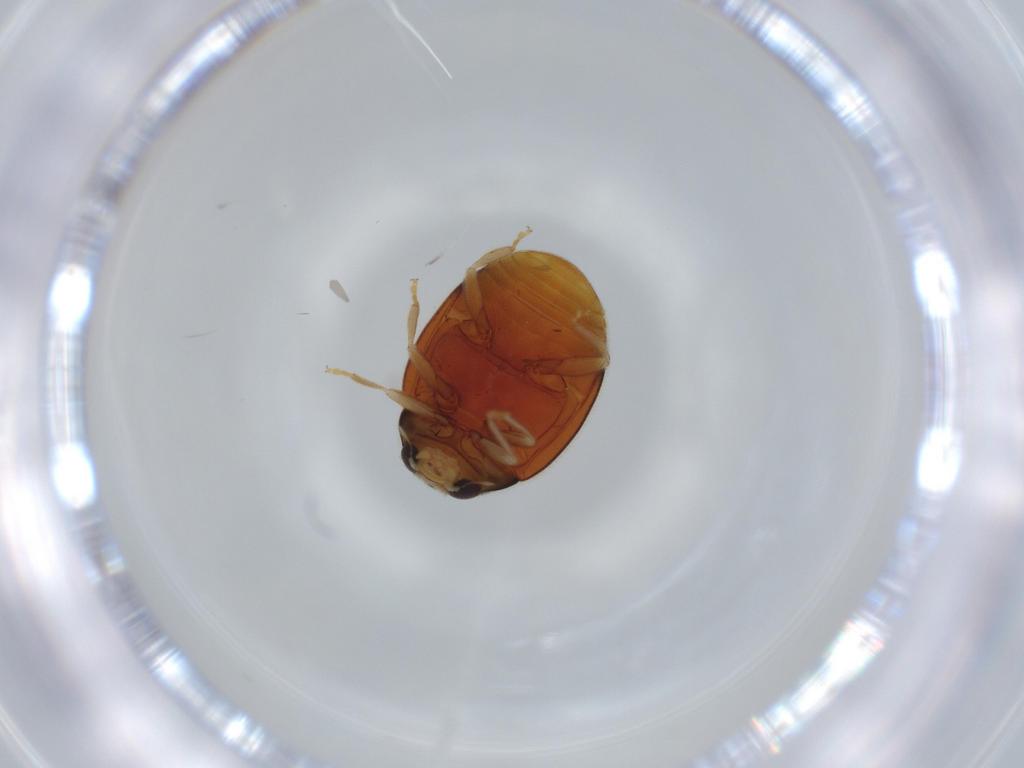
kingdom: Animalia
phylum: Arthropoda
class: Insecta
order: Coleoptera
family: Coccinellidae
